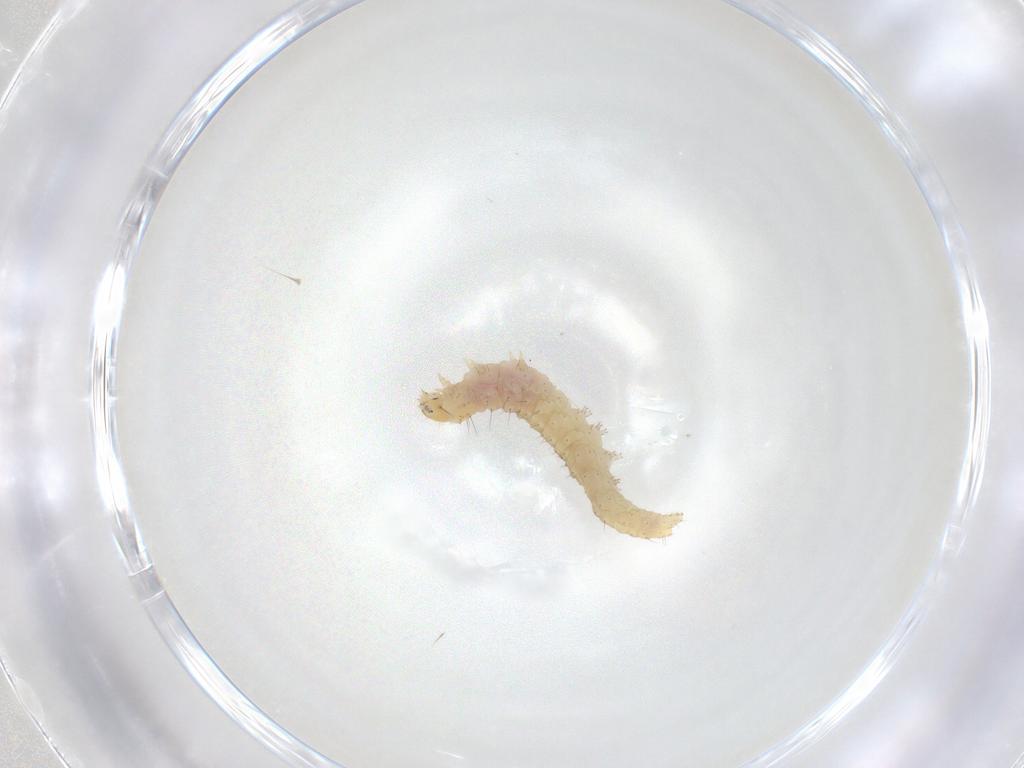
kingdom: Animalia
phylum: Arthropoda
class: Insecta
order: Lepidoptera
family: Gelechiidae
